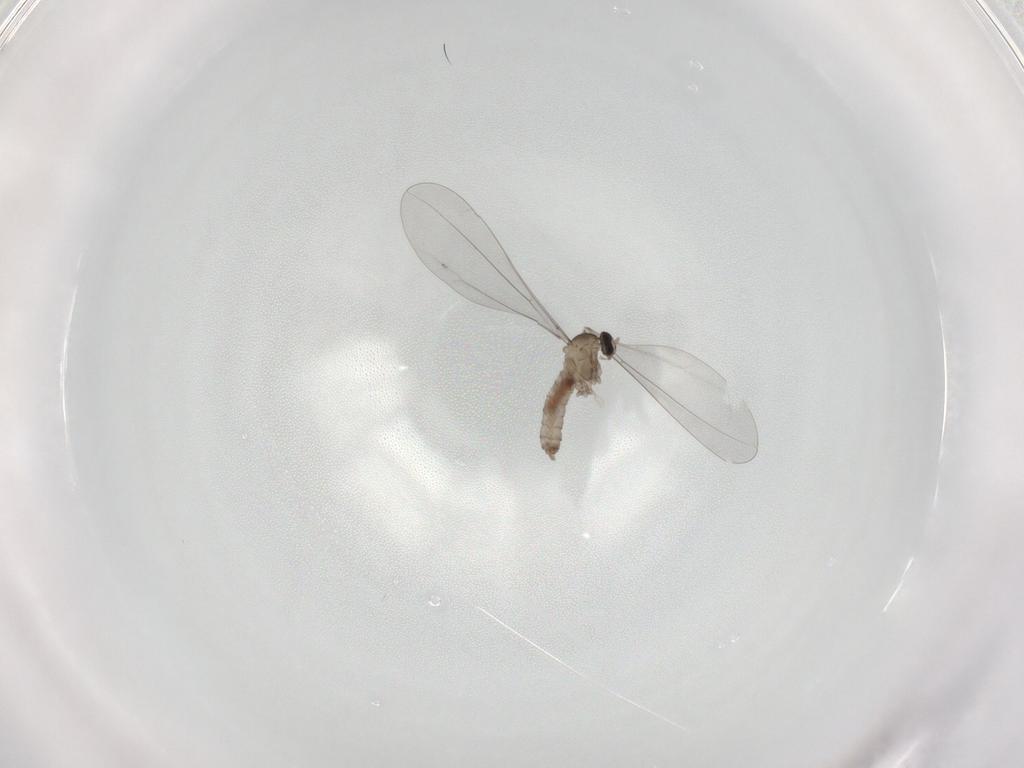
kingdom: Animalia
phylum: Arthropoda
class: Insecta
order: Diptera
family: Cecidomyiidae
